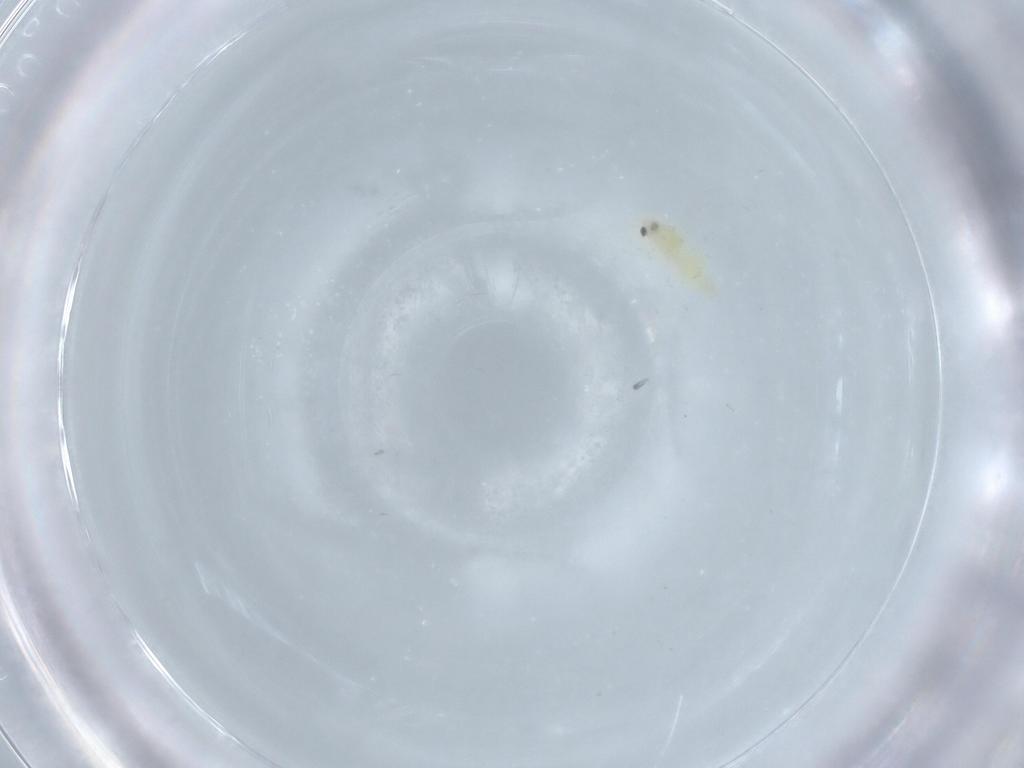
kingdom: Animalia
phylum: Arthropoda
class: Insecta
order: Hemiptera
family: Aleyrodidae
